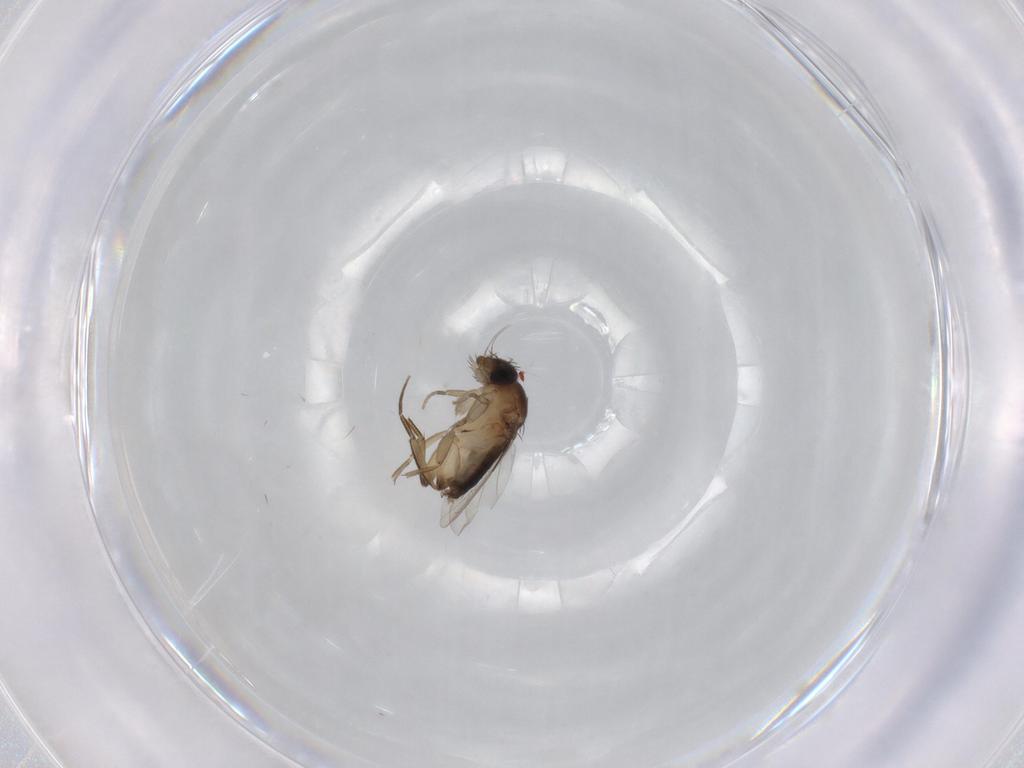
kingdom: Animalia
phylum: Arthropoda
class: Insecta
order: Diptera
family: Phoridae
